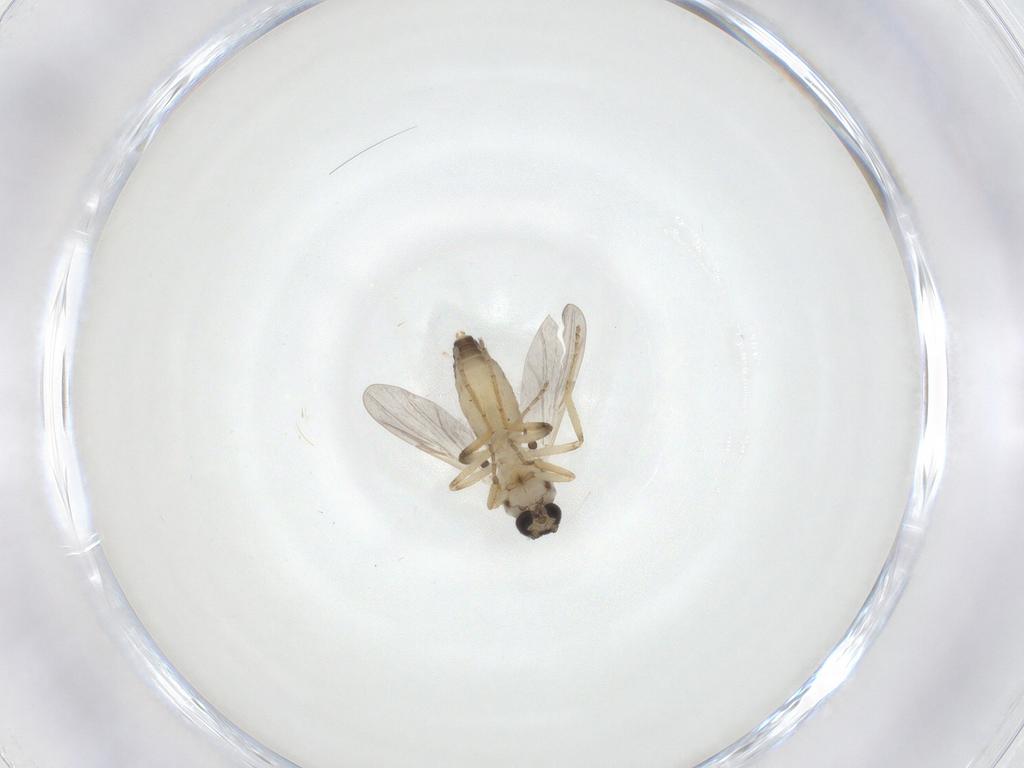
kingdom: Animalia
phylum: Arthropoda
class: Insecta
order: Diptera
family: Ceratopogonidae
